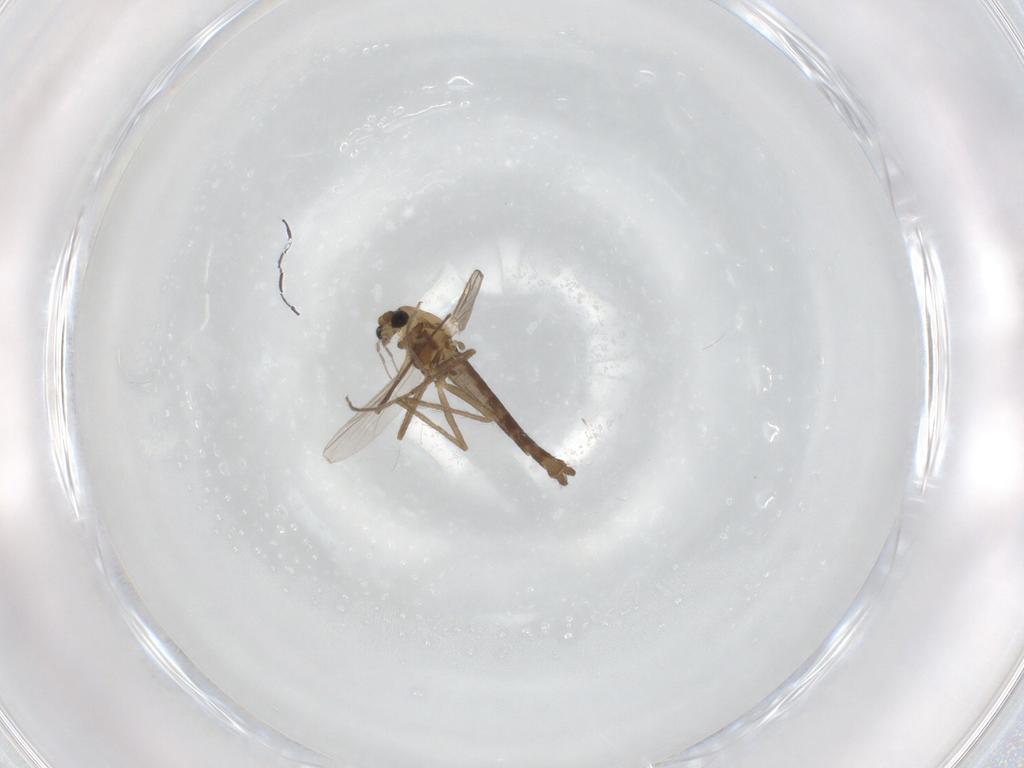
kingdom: Animalia
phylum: Arthropoda
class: Insecta
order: Diptera
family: Chironomidae
